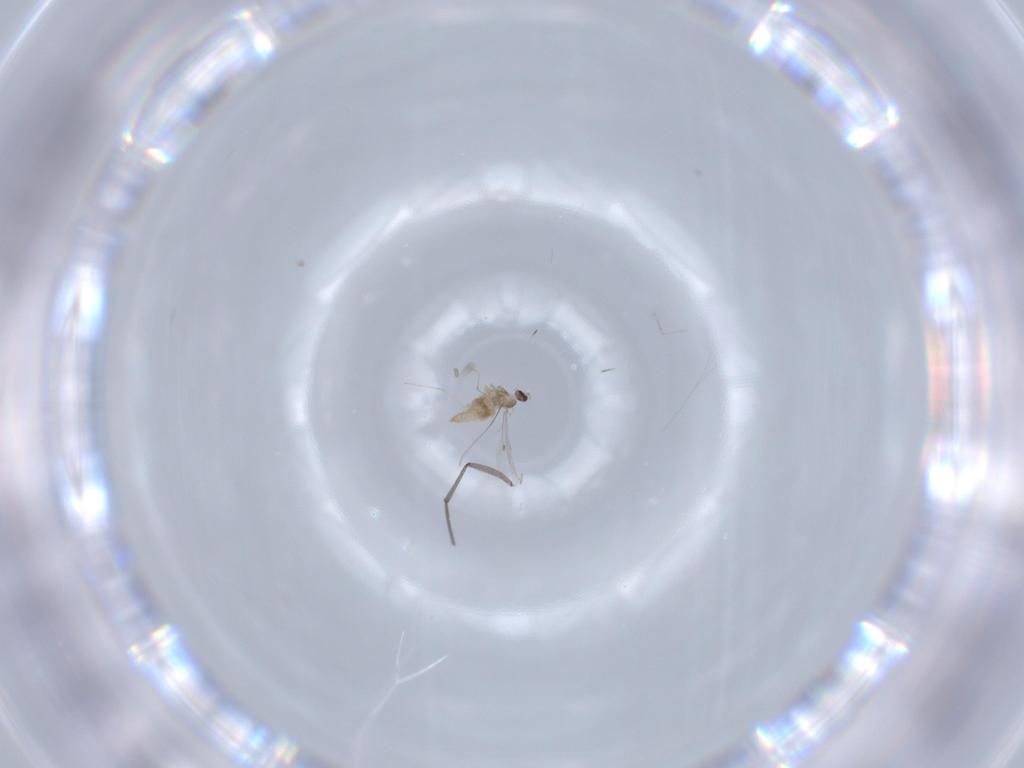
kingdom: Animalia
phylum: Arthropoda
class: Insecta
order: Diptera
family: Cecidomyiidae
